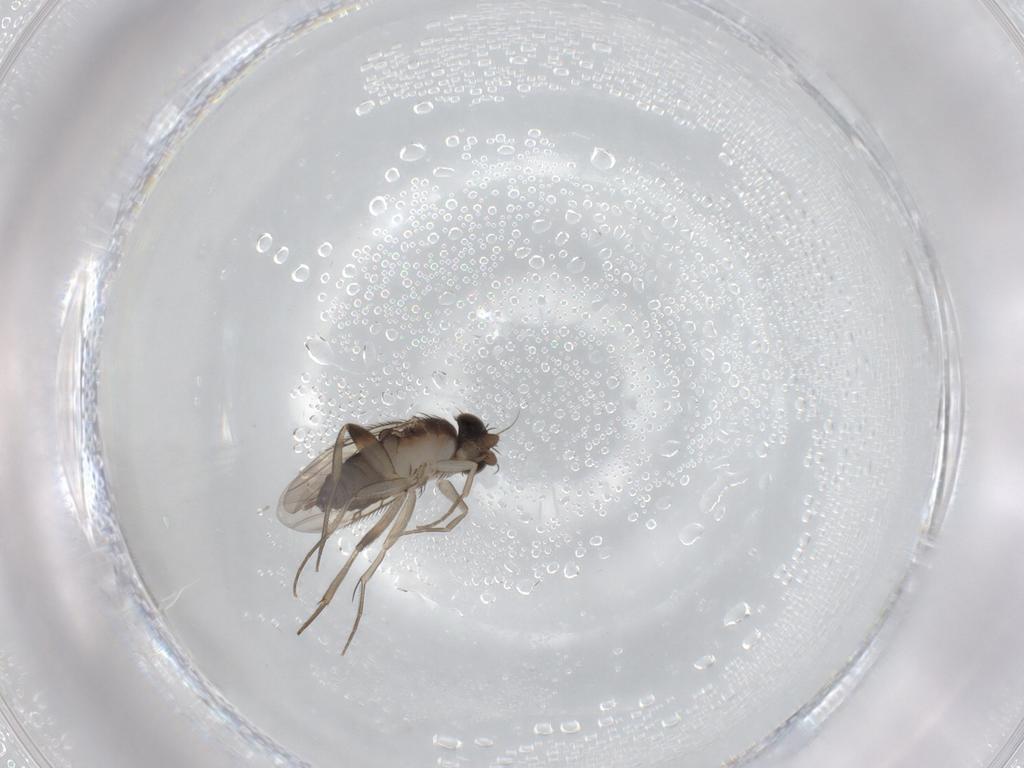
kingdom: Animalia
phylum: Arthropoda
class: Insecta
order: Diptera
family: Phoridae
